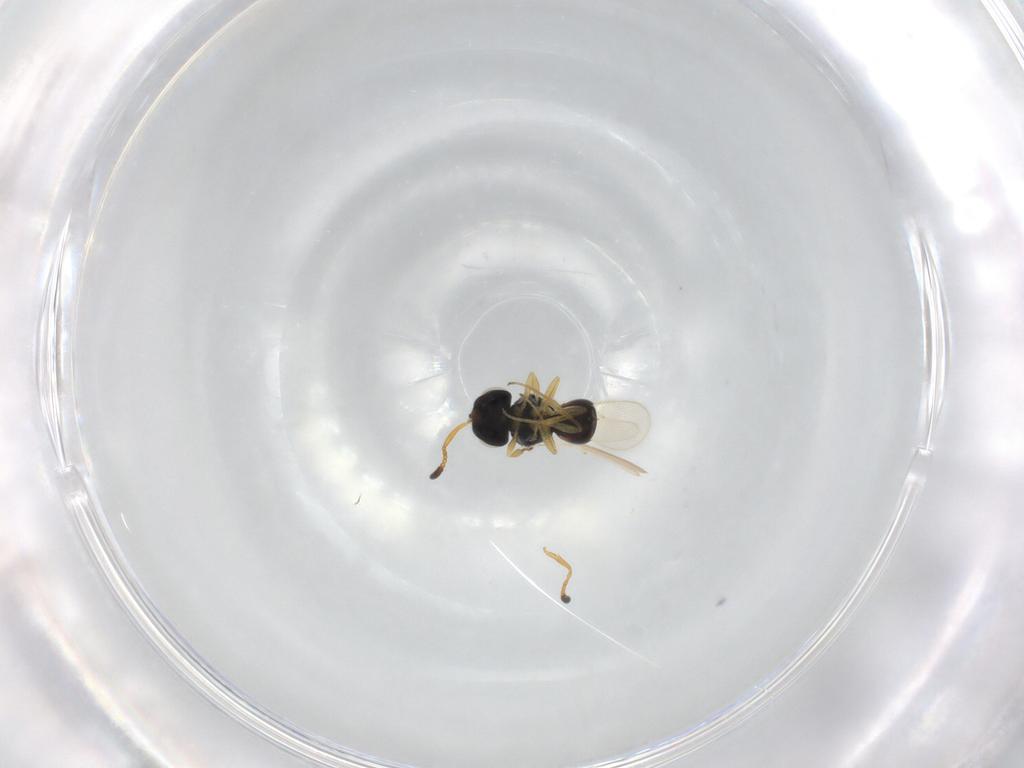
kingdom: Animalia
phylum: Arthropoda
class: Insecta
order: Hymenoptera
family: Scelionidae
